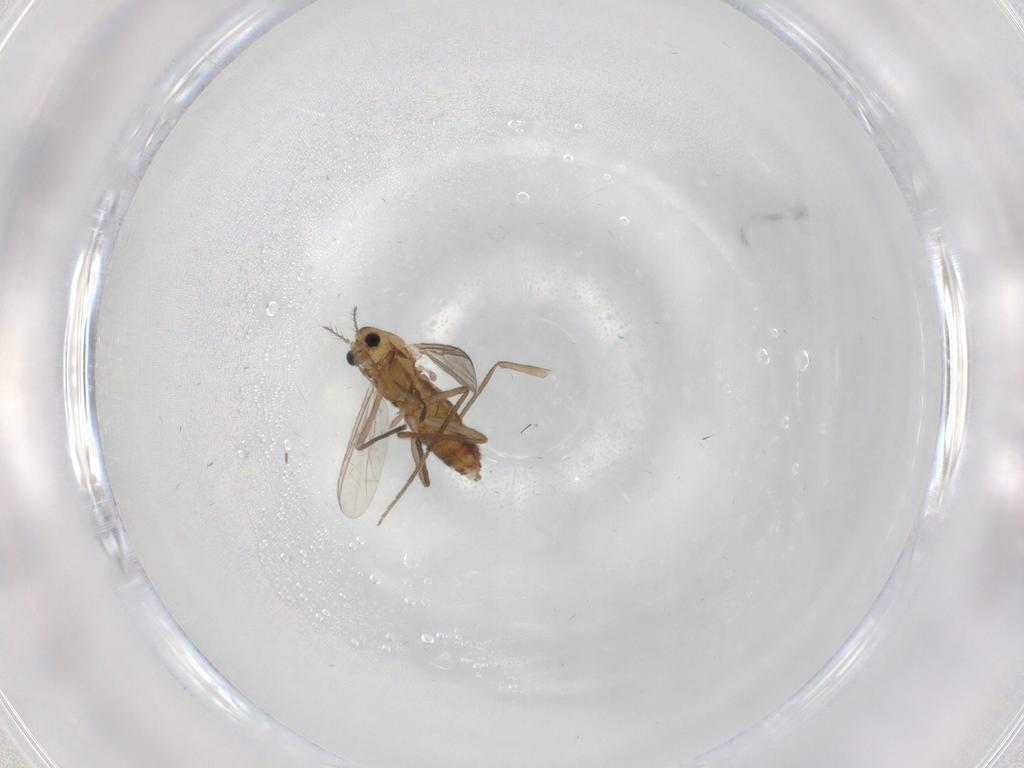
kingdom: Animalia
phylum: Arthropoda
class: Insecta
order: Diptera
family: Chironomidae
